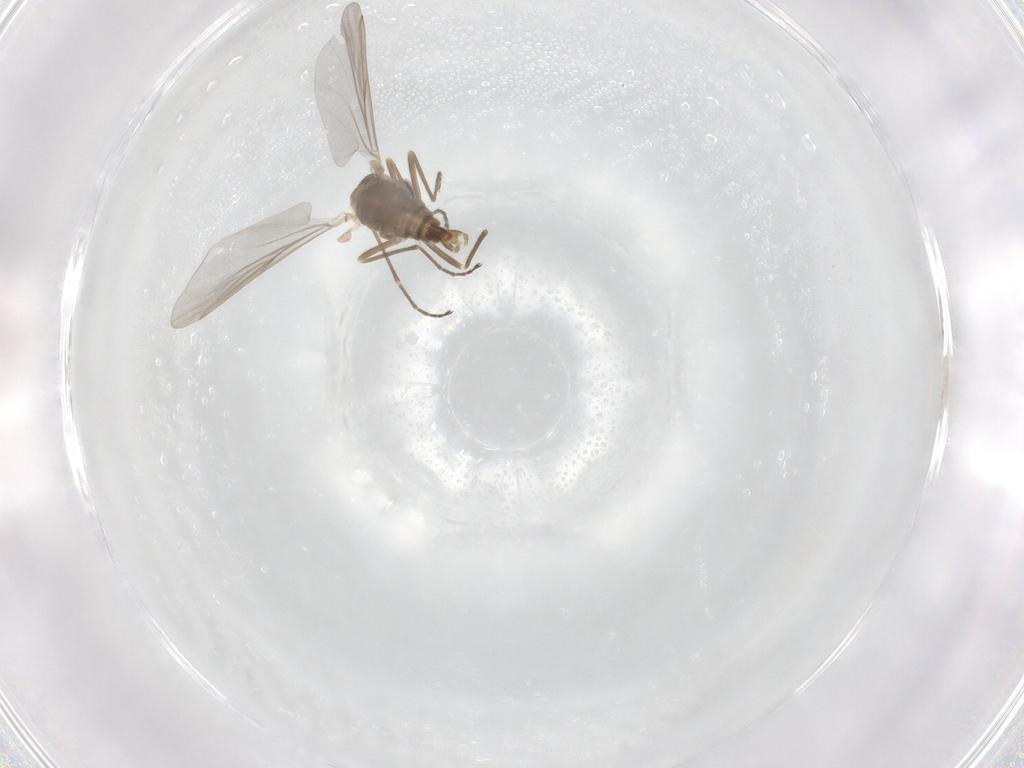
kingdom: Animalia
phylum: Arthropoda
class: Insecta
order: Diptera
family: Cecidomyiidae
